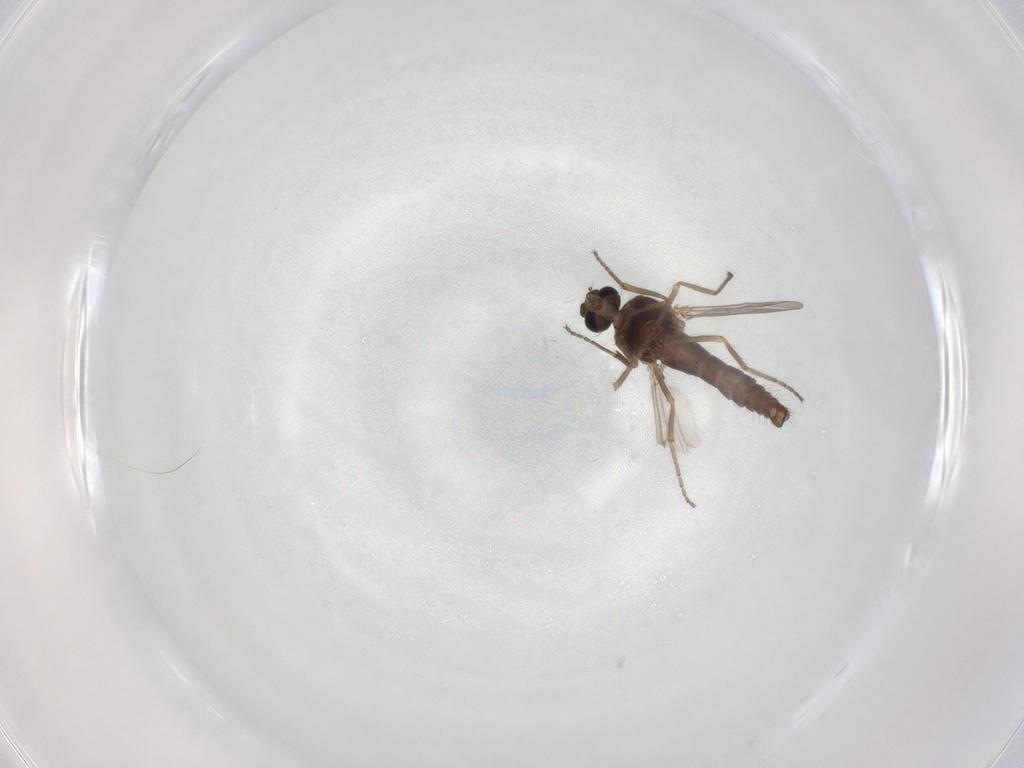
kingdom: Animalia
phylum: Arthropoda
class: Insecta
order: Diptera
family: Ceratopogonidae
